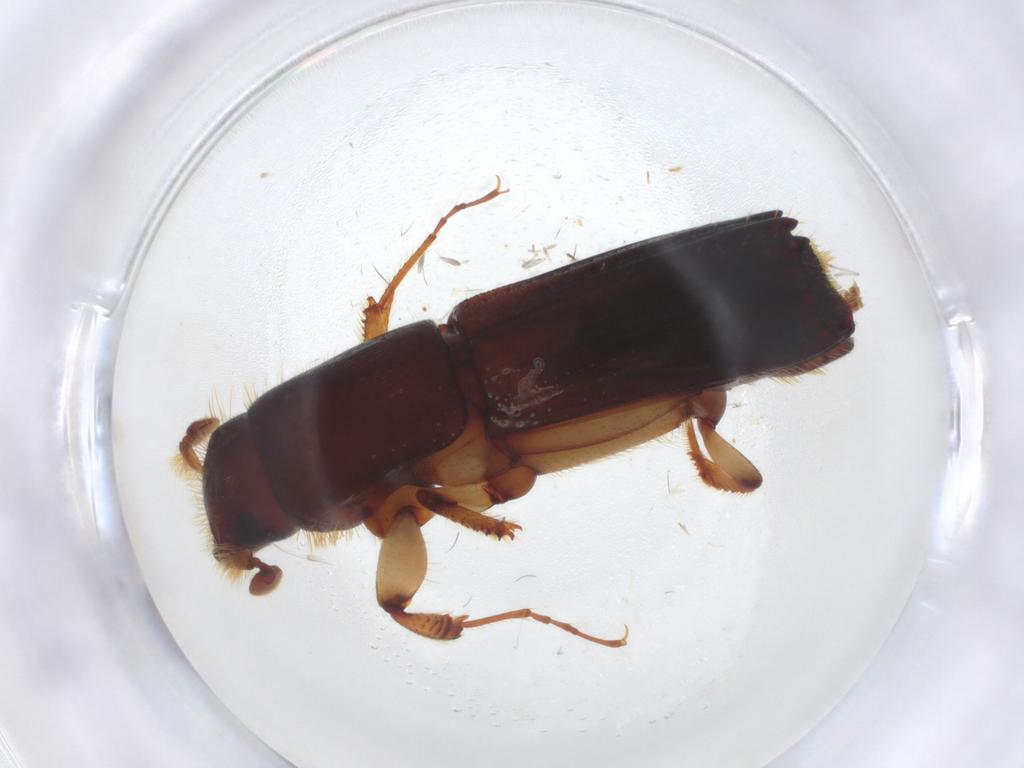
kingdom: Animalia
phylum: Arthropoda
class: Insecta
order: Coleoptera
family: Curculionidae
